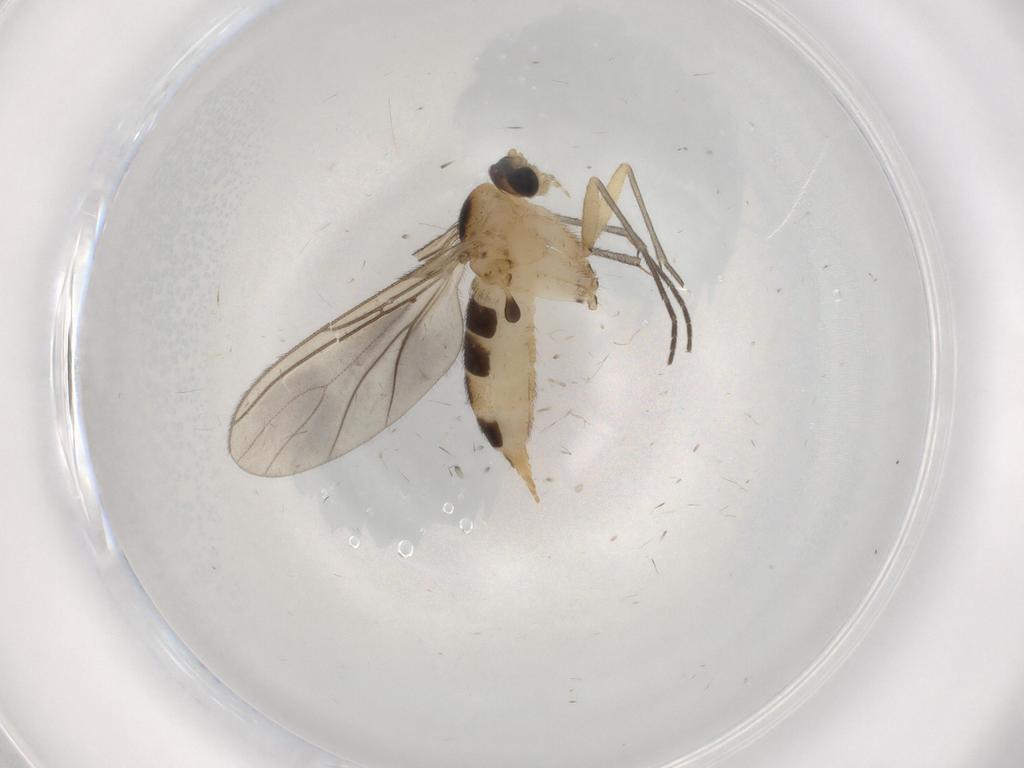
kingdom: Animalia
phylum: Arthropoda
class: Insecta
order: Diptera
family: Sciaridae
